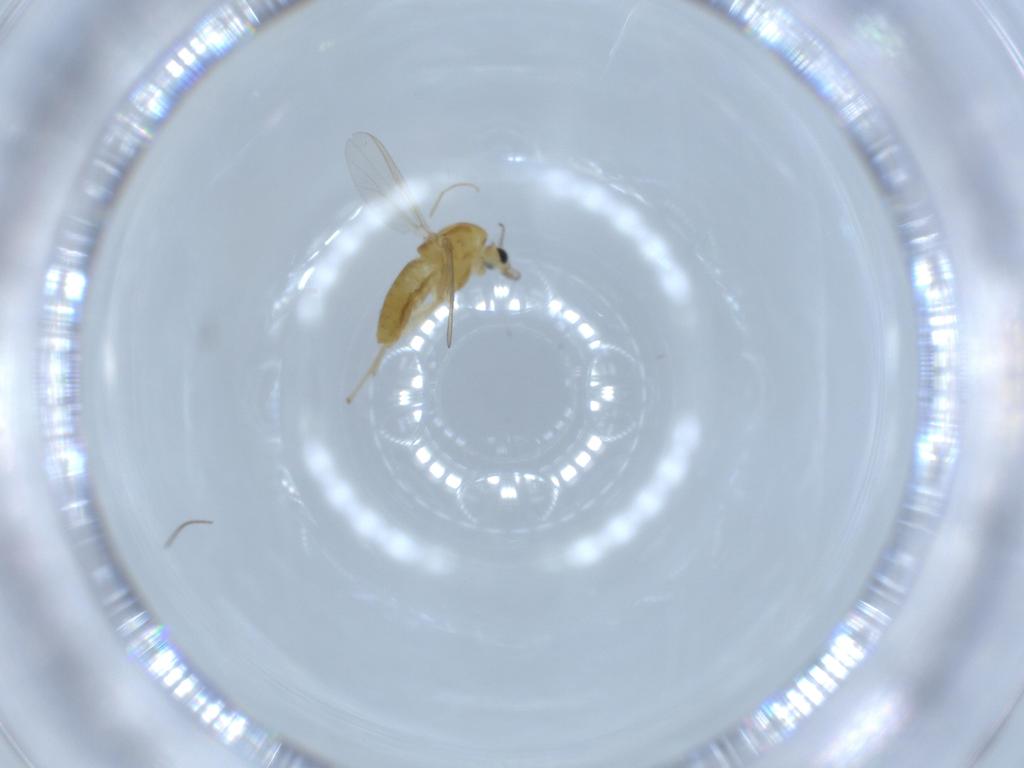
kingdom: Animalia
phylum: Arthropoda
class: Insecta
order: Diptera
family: Chironomidae
